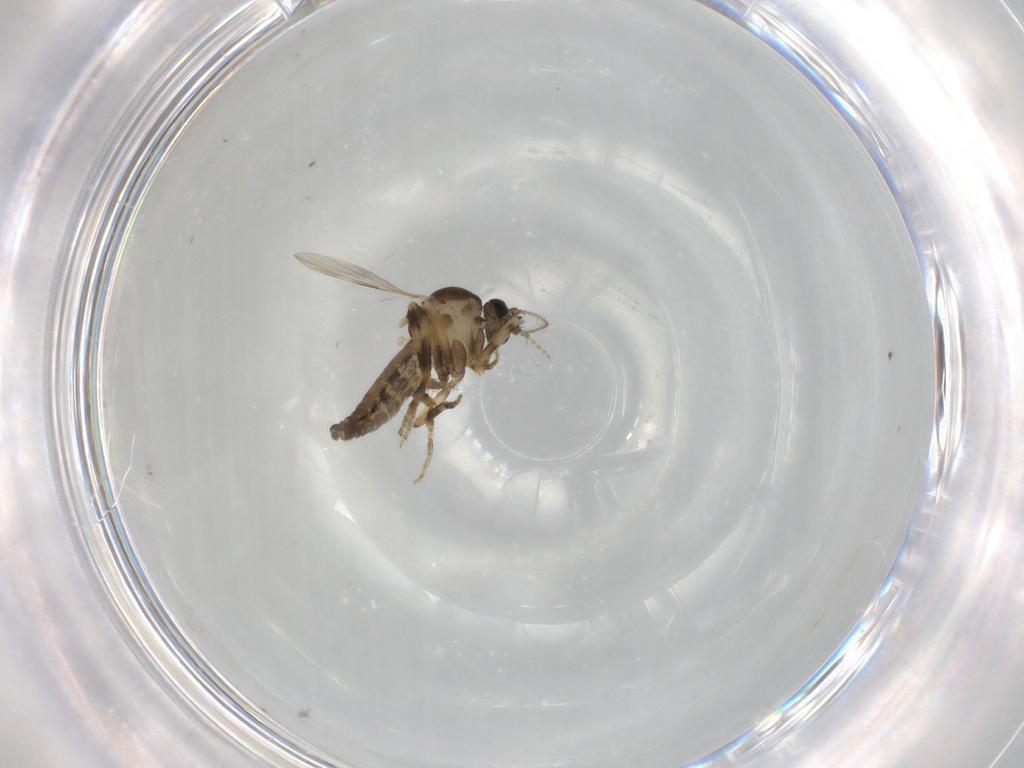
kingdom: Animalia
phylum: Arthropoda
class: Insecta
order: Diptera
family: Ceratopogonidae
